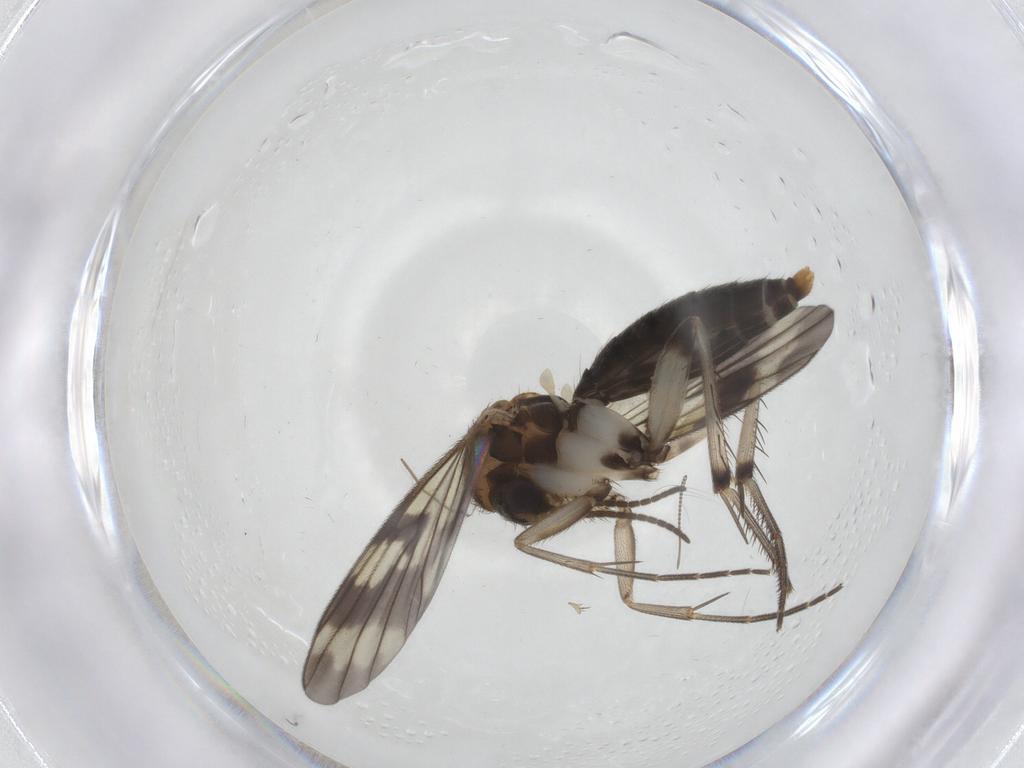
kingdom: Animalia
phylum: Arthropoda
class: Insecta
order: Diptera
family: Mycetophilidae
